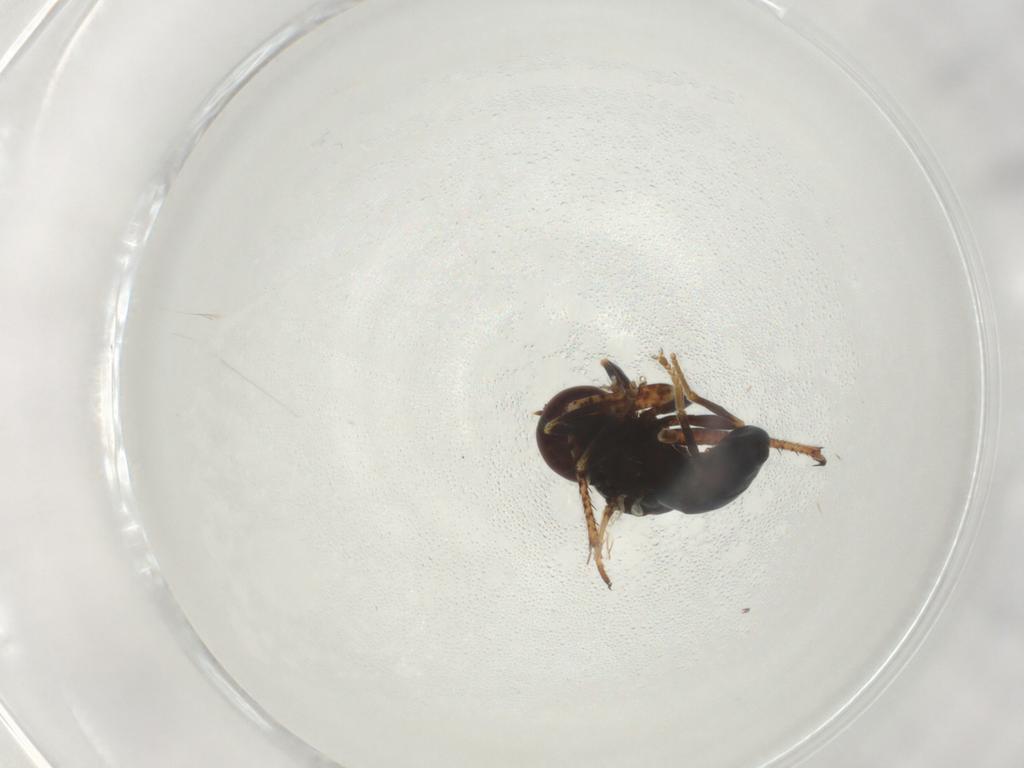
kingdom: Animalia
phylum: Arthropoda
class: Insecta
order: Diptera
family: Pipunculidae
